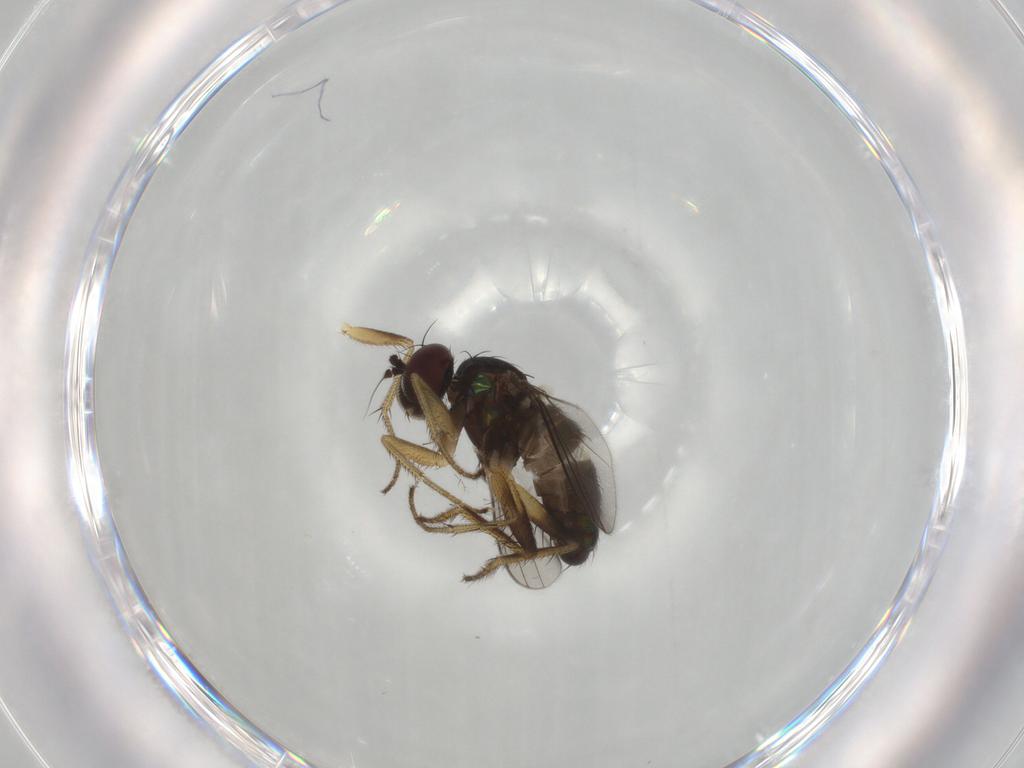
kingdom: Animalia
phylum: Arthropoda
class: Insecta
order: Diptera
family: Dolichopodidae
